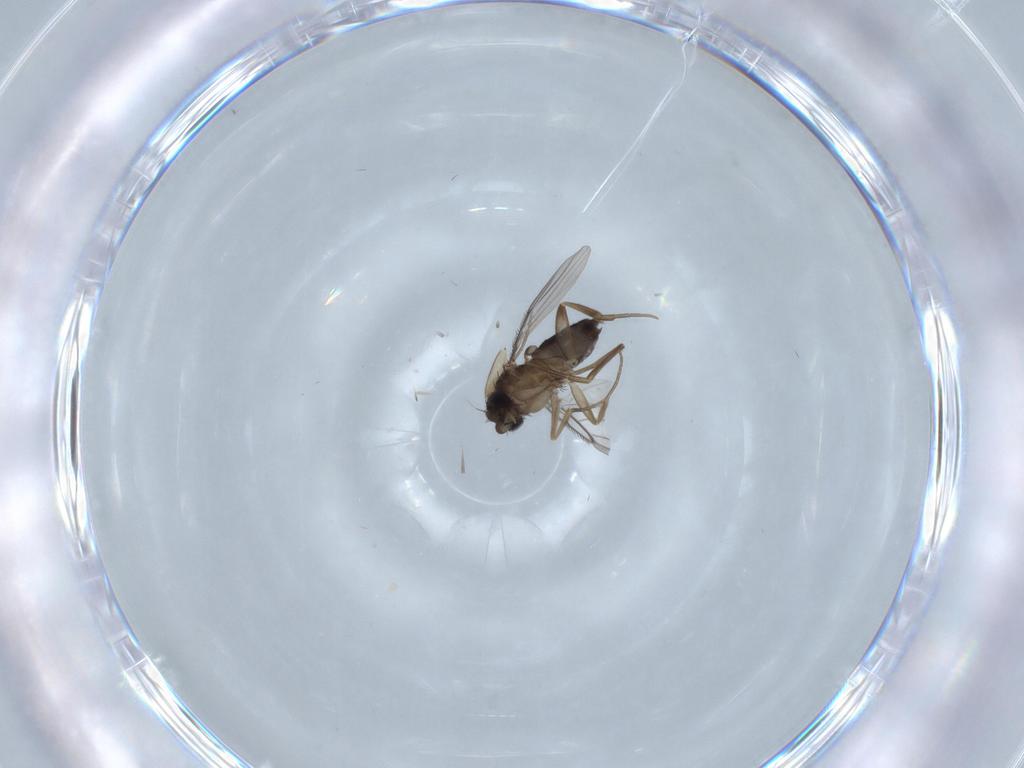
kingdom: Animalia
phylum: Arthropoda
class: Insecta
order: Diptera
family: Phoridae
